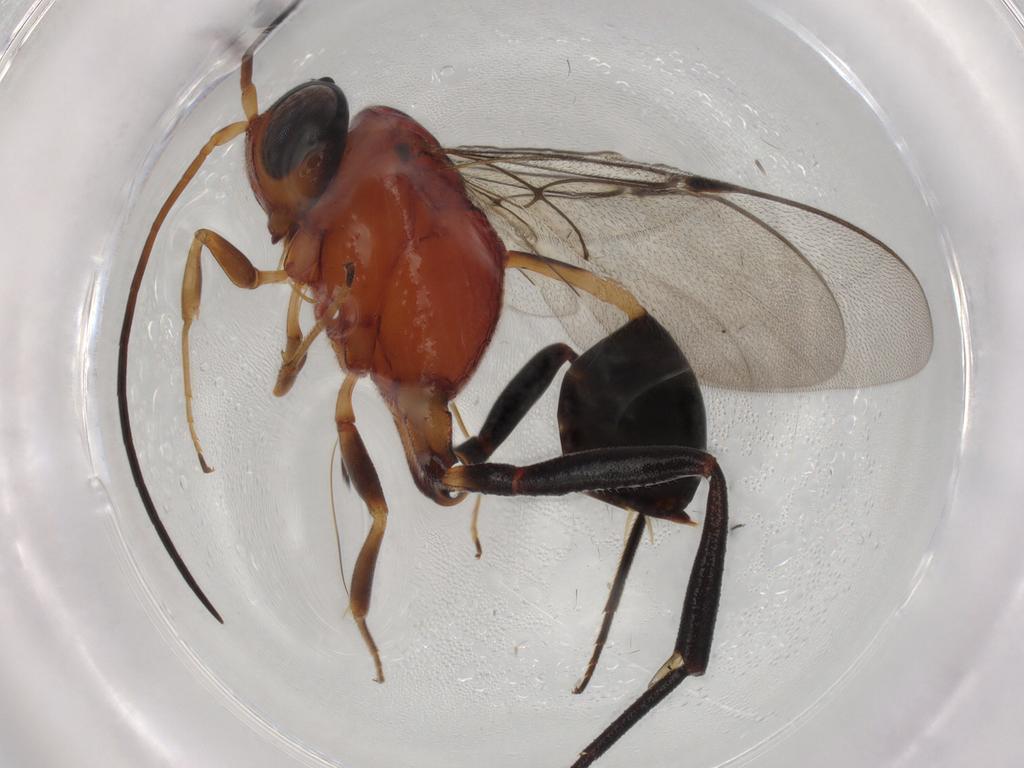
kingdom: Animalia
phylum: Arthropoda
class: Insecta
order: Hymenoptera
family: Evaniidae
